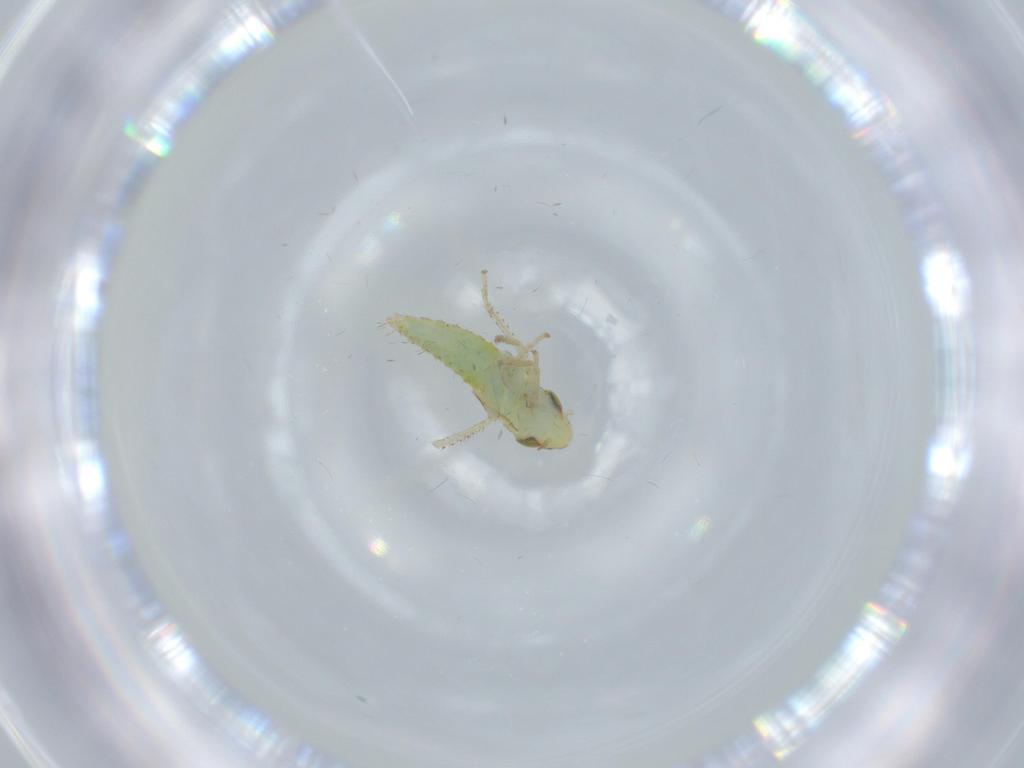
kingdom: Animalia
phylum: Arthropoda
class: Insecta
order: Hemiptera
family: Cicadellidae
